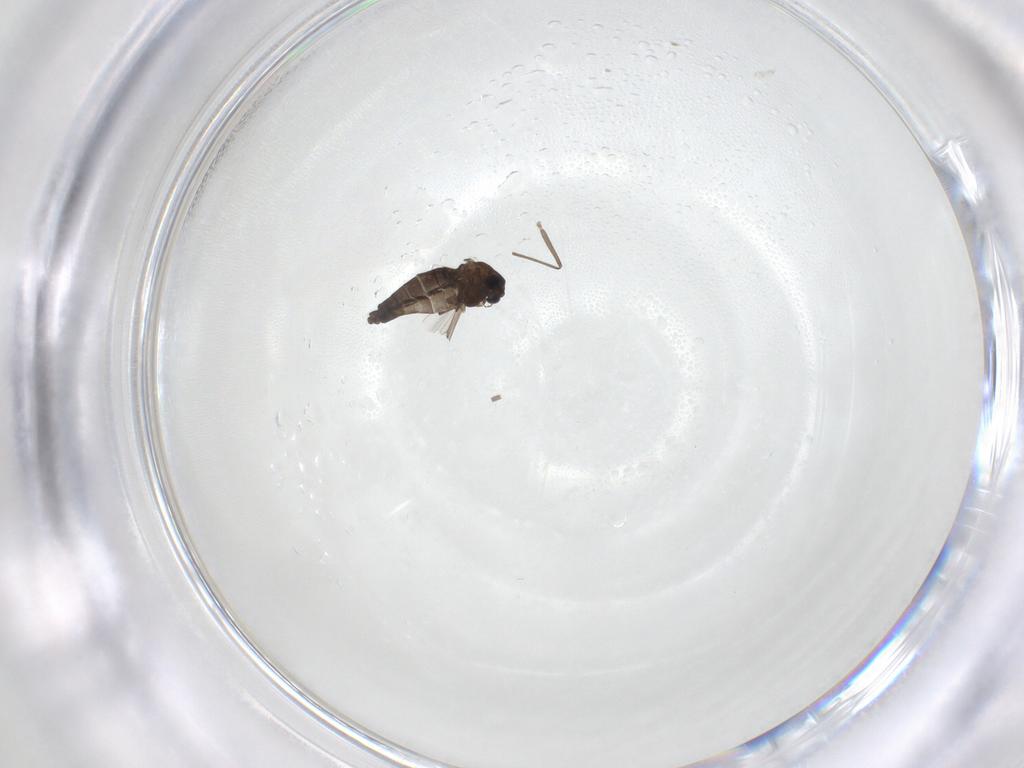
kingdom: Animalia
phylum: Arthropoda
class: Insecta
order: Diptera
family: Chironomidae
